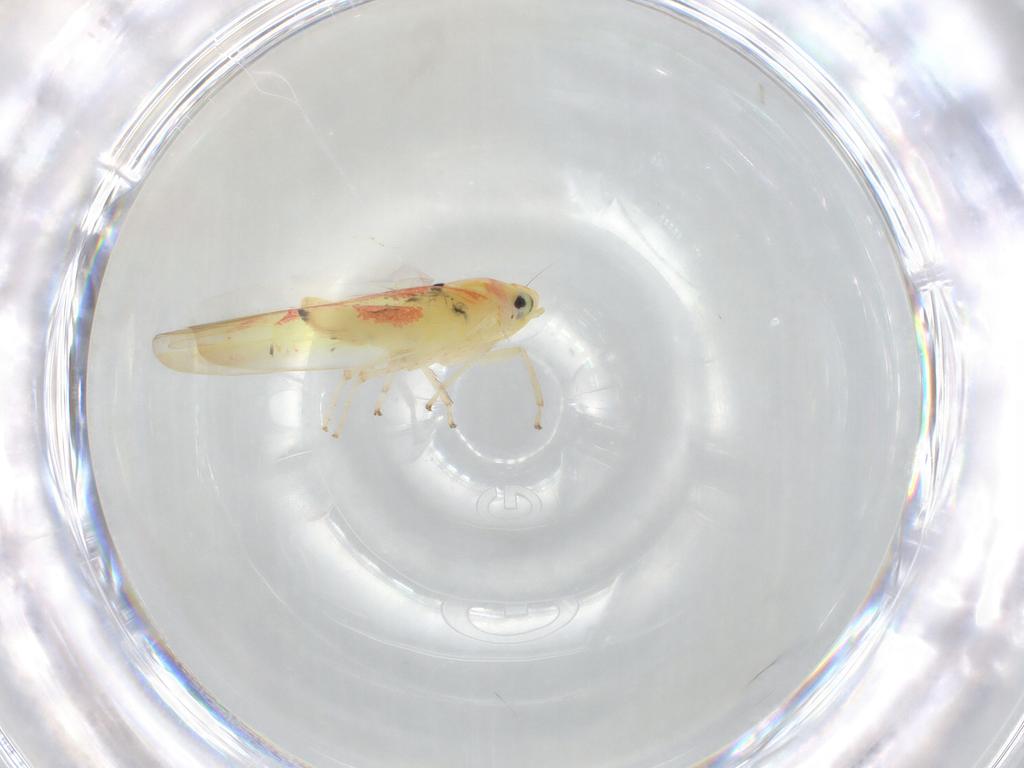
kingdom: Animalia
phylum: Arthropoda
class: Insecta
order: Hemiptera
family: Cicadellidae
